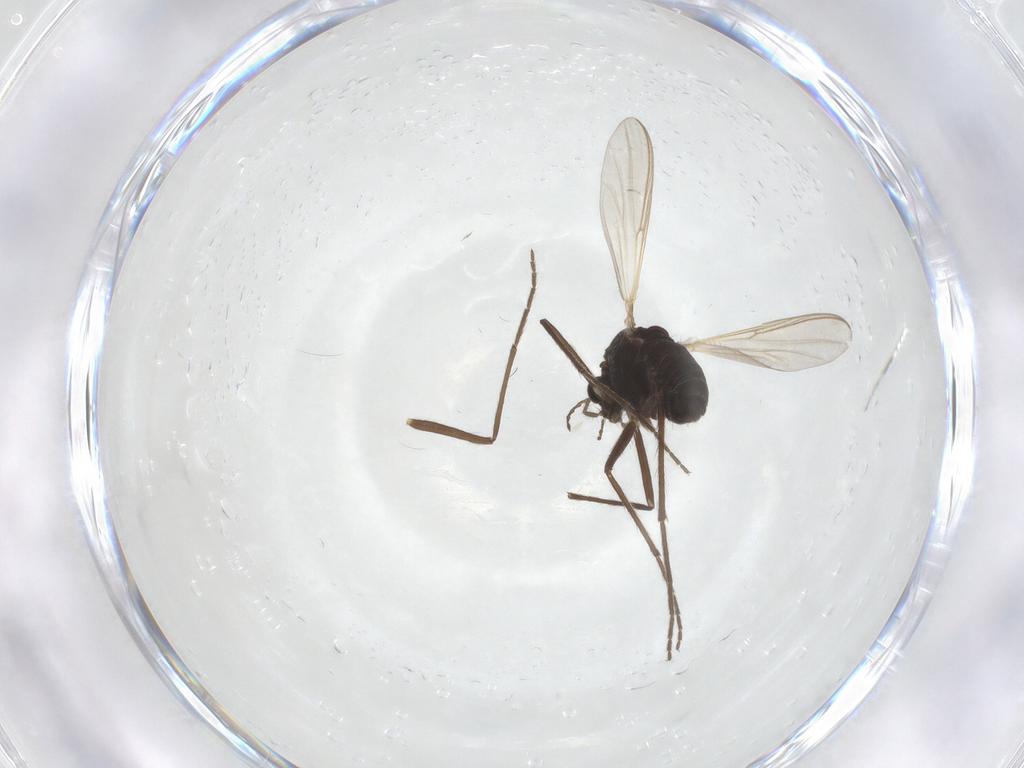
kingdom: Animalia
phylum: Arthropoda
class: Insecta
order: Diptera
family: Chironomidae
